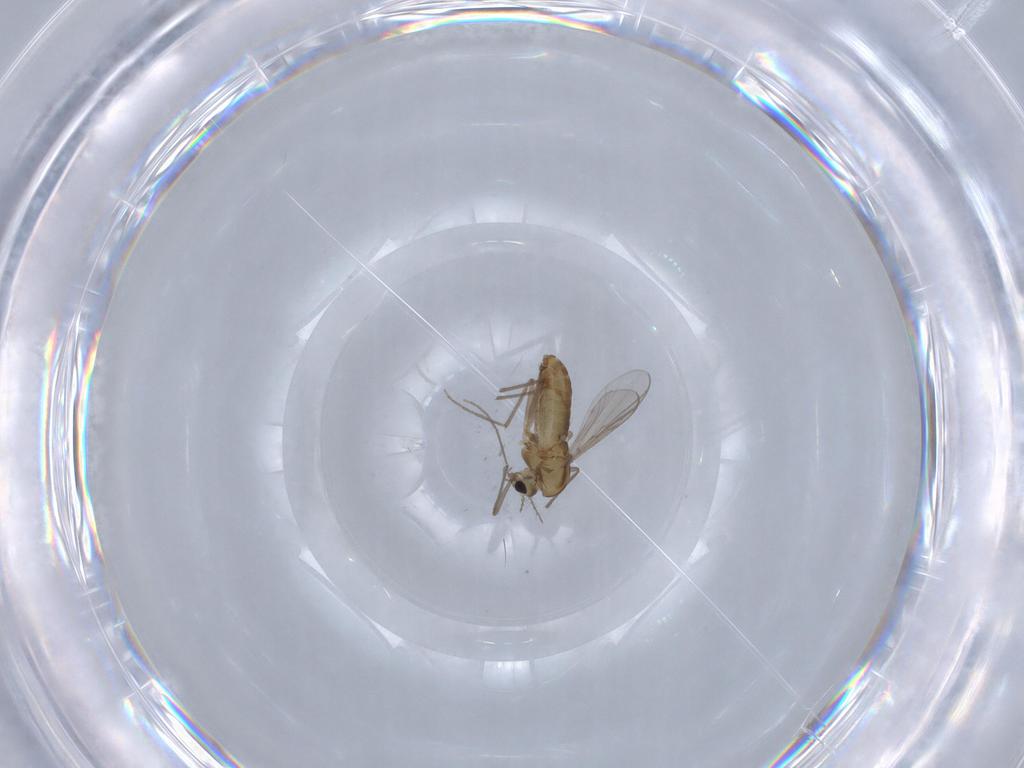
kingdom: Animalia
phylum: Arthropoda
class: Insecta
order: Diptera
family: Chironomidae
